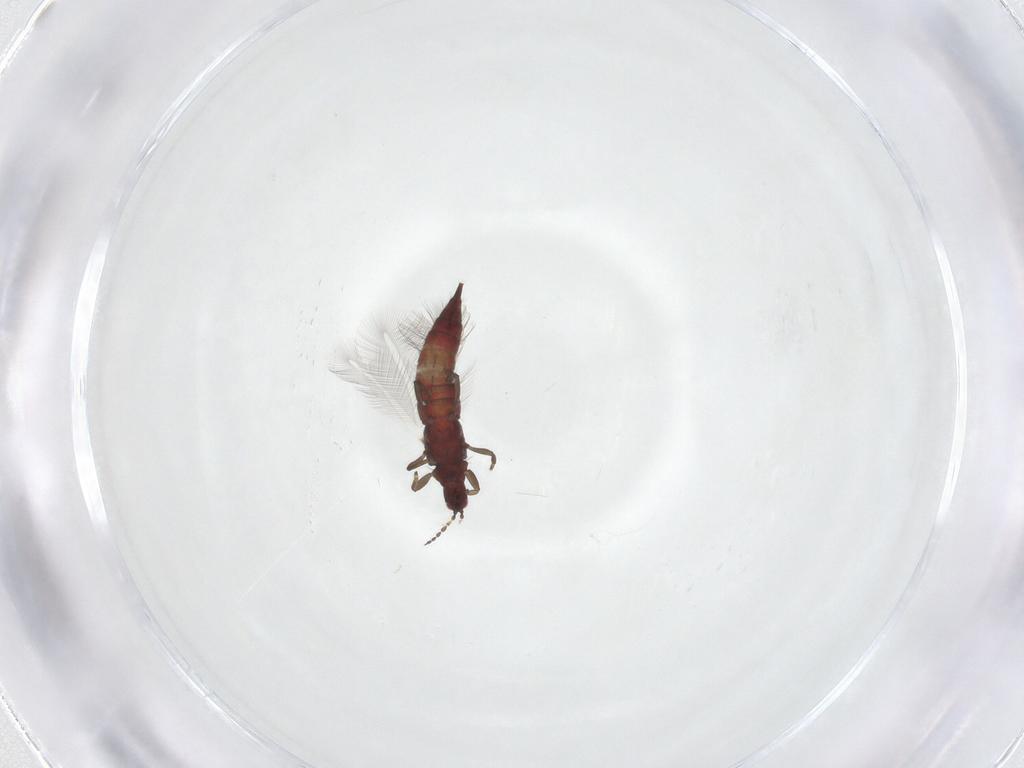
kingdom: Animalia
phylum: Arthropoda
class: Insecta
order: Thysanoptera
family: Phlaeothripidae
